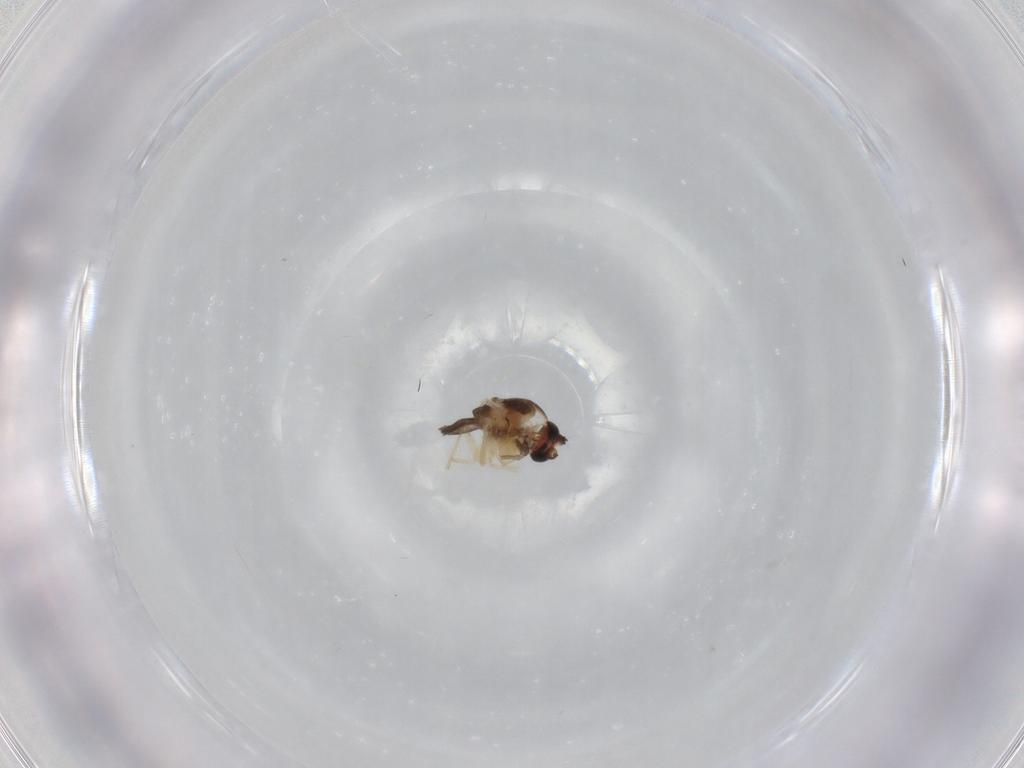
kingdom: Animalia
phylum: Arthropoda
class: Insecta
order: Diptera
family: Chironomidae
